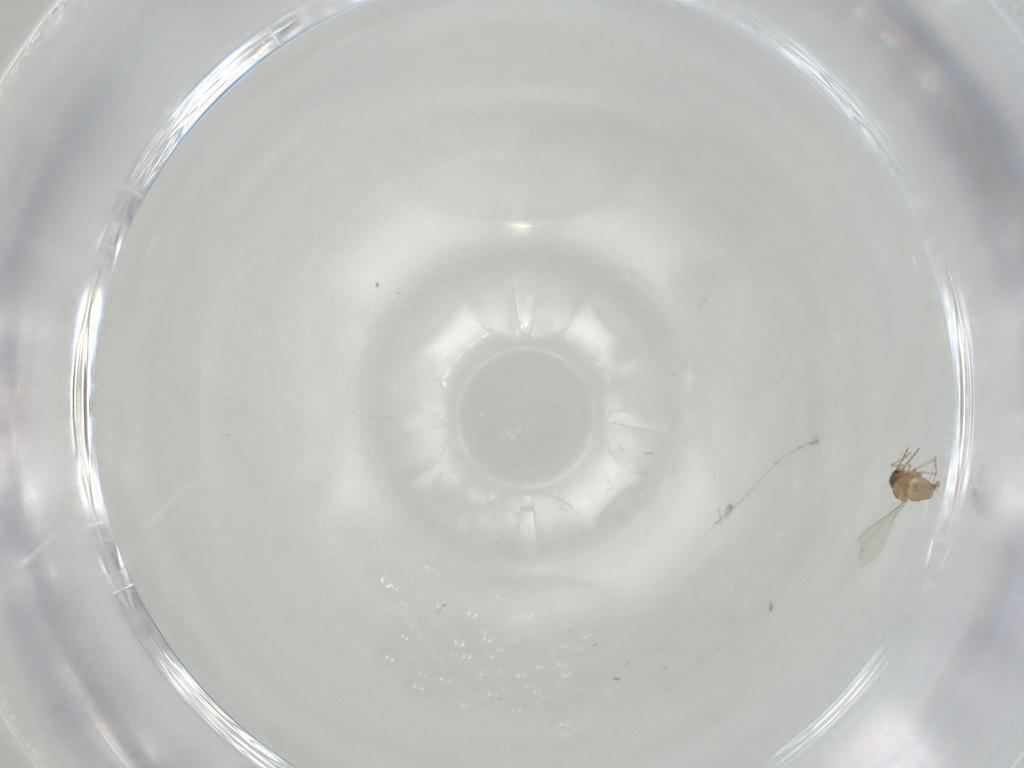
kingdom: Animalia
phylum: Arthropoda
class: Insecta
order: Diptera
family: Cecidomyiidae
